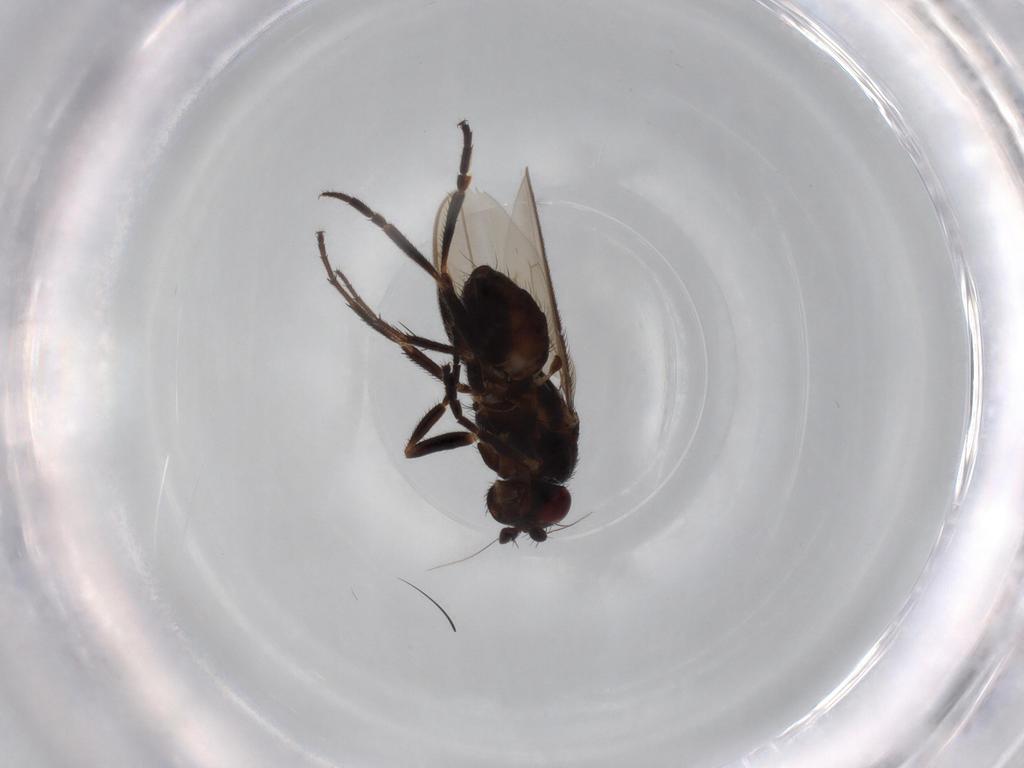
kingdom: Animalia
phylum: Arthropoda
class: Insecta
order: Diptera
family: Sphaeroceridae
